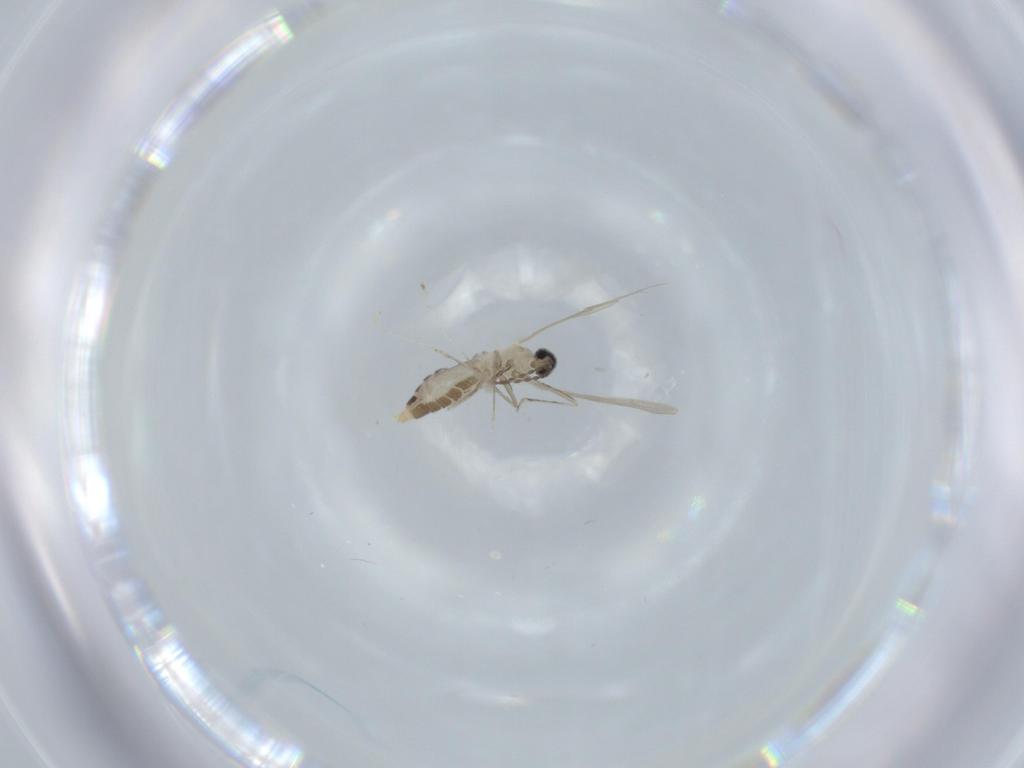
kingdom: Animalia
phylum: Arthropoda
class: Insecta
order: Diptera
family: Cecidomyiidae
